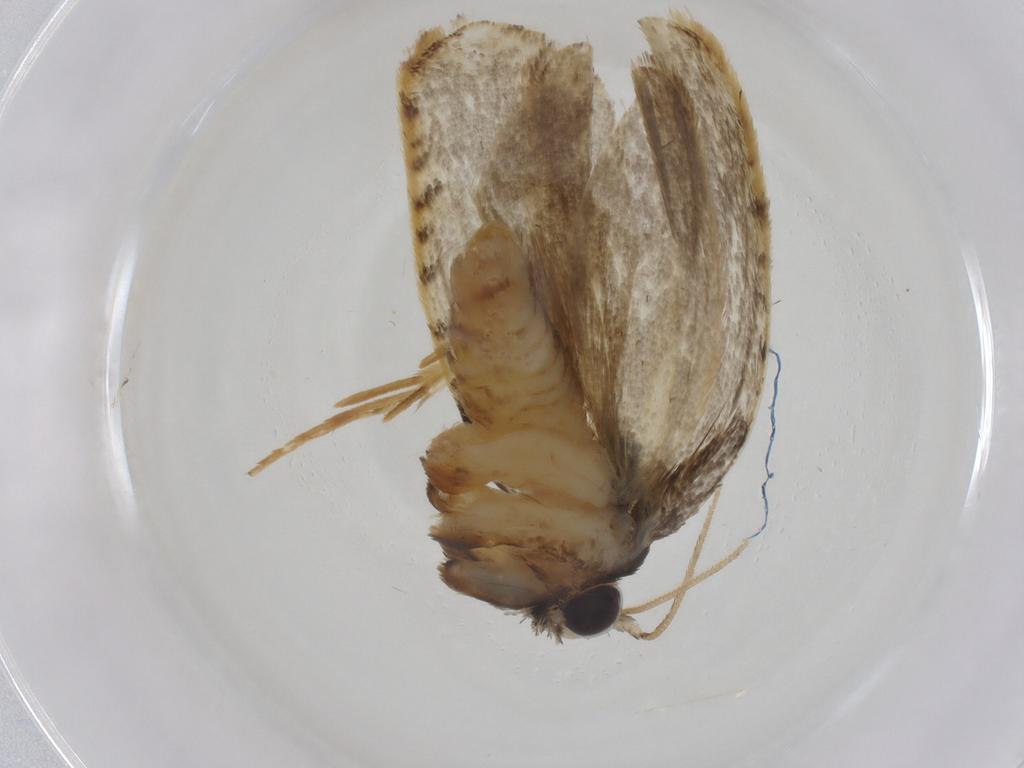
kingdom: Animalia
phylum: Arthropoda
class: Insecta
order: Lepidoptera
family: Psychidae
